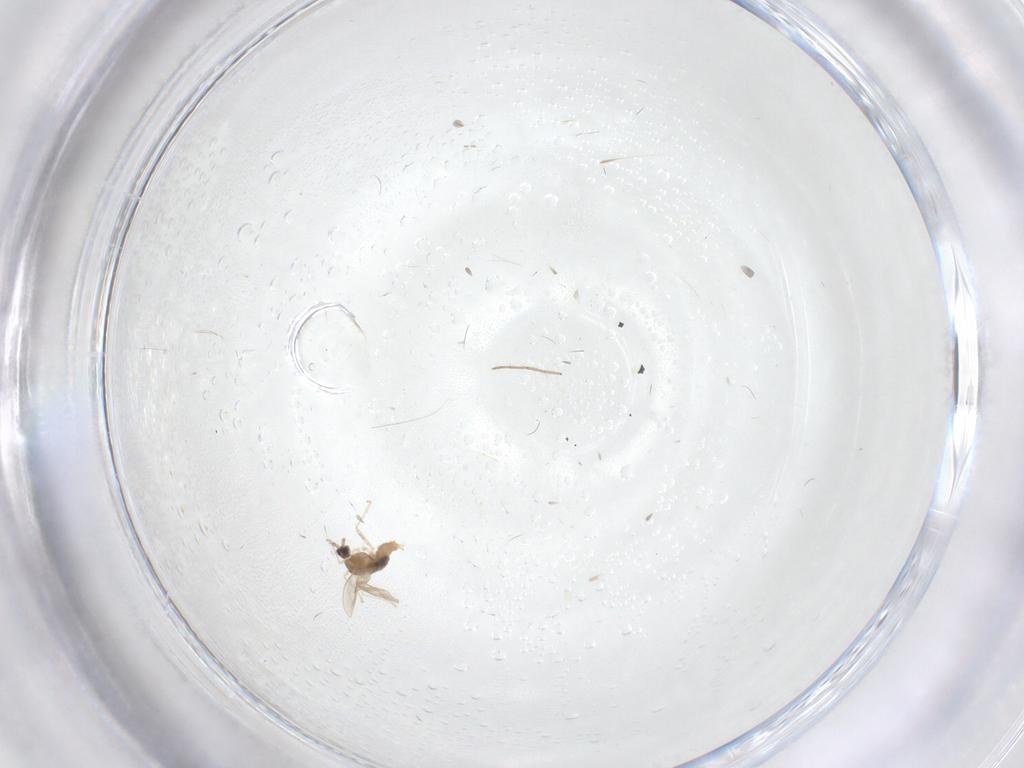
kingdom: Animalia
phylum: Arthropoda
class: Insecta
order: Diptera
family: Cecidomyiidae
